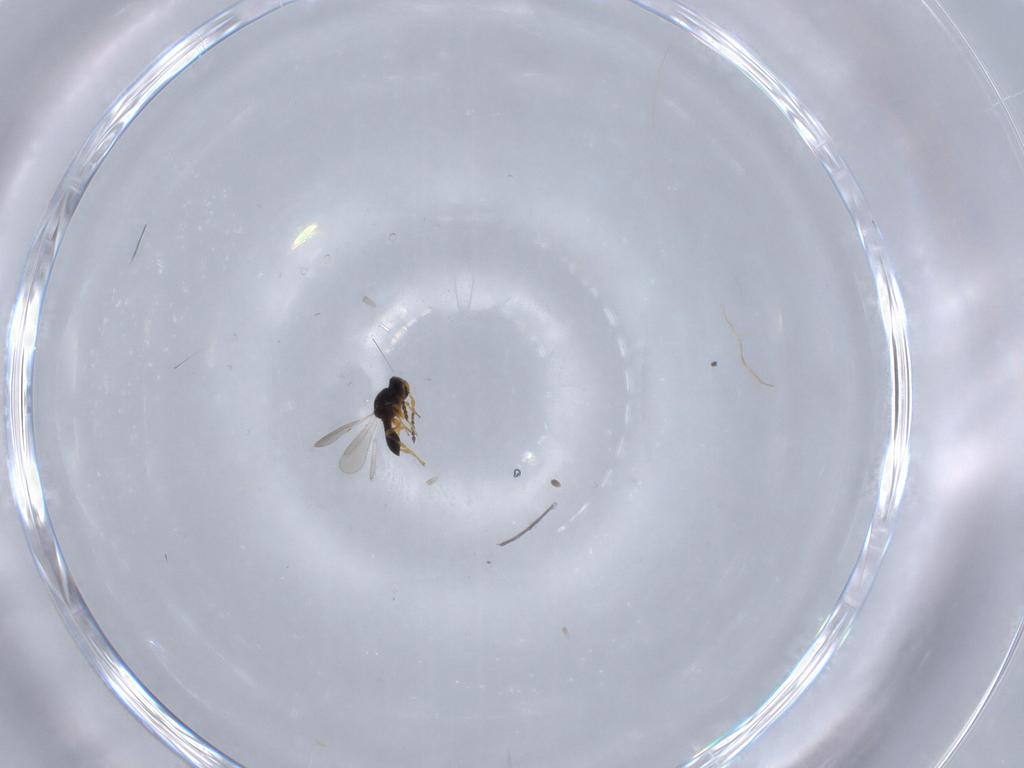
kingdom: Animalia
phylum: Arthropoda
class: Insecta
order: Hymenoptera
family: Platygastridae
